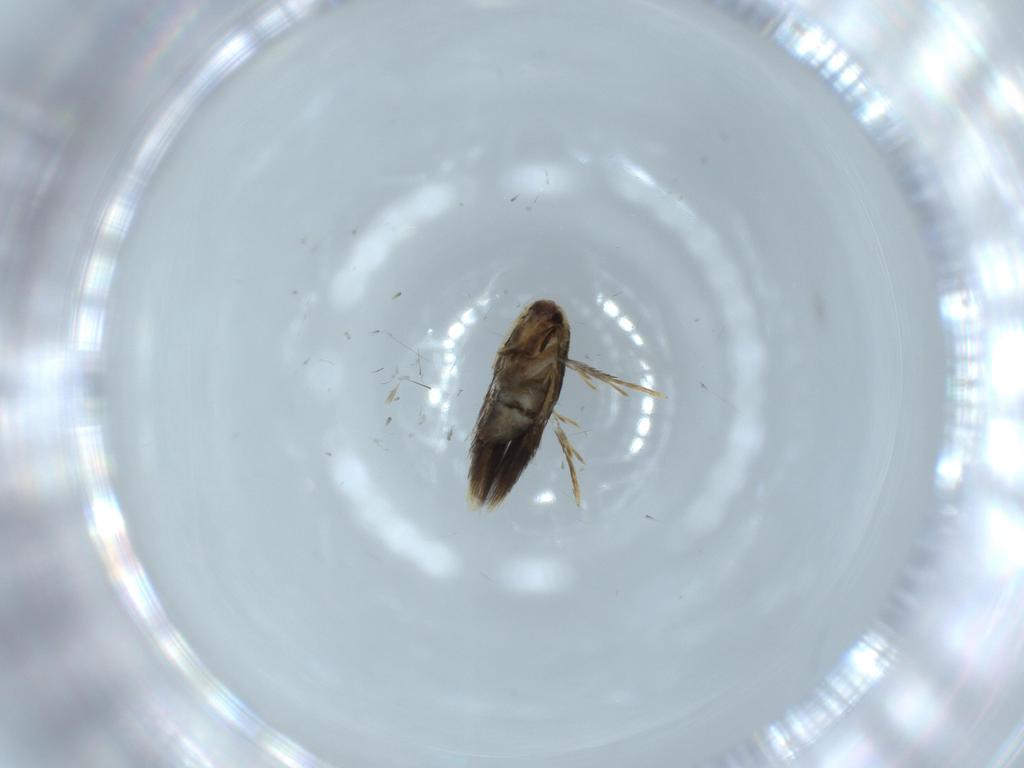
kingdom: Animalia
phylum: Arthropoda
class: Insecta
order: Lepidoptera
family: Nepticulidae
